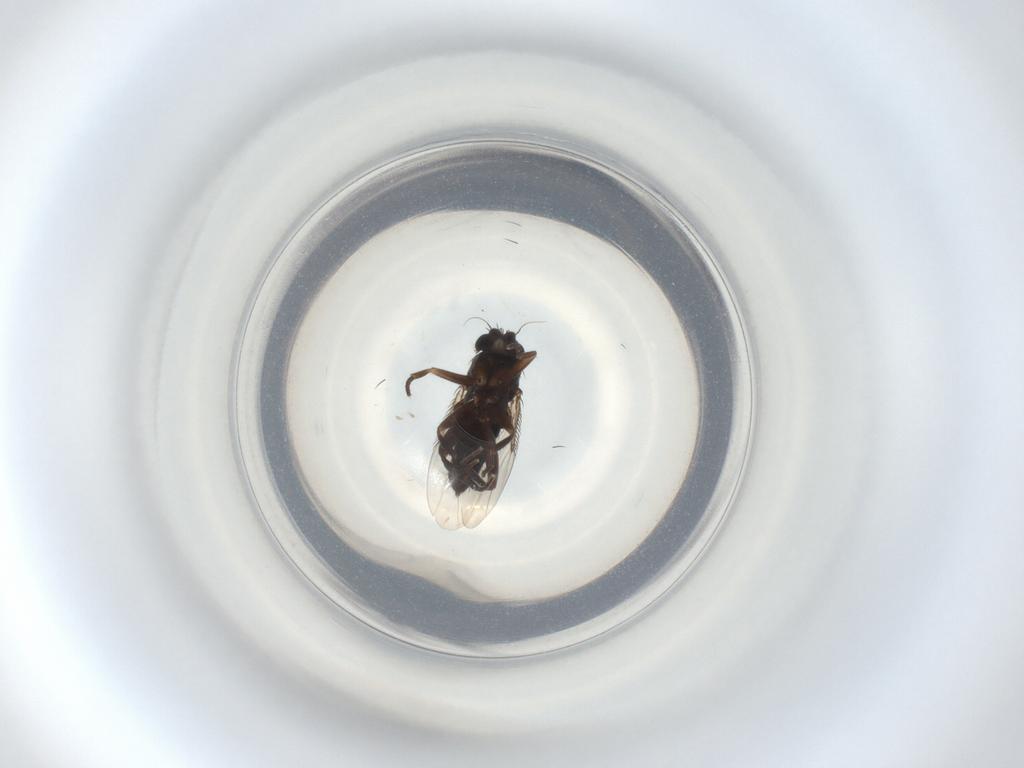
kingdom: Animalia
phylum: Arthropoda
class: Insecta
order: Diptera
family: Phoridae
